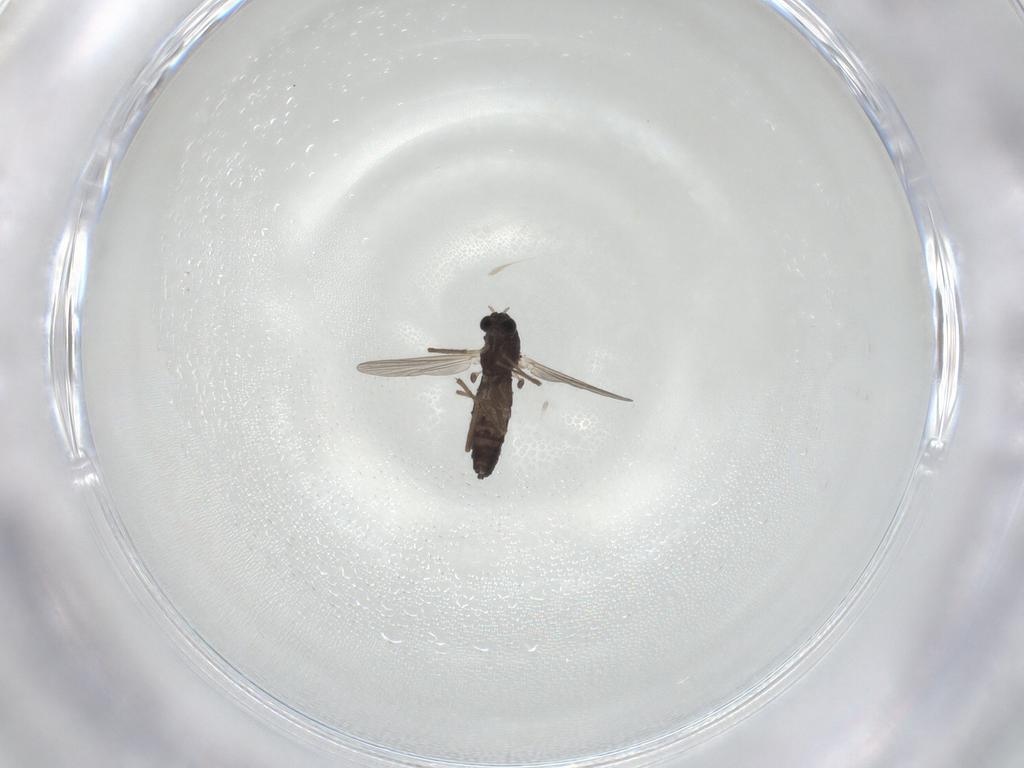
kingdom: Animalia
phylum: Arthropoda
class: Insecta
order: Diptera
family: Chironomidae
